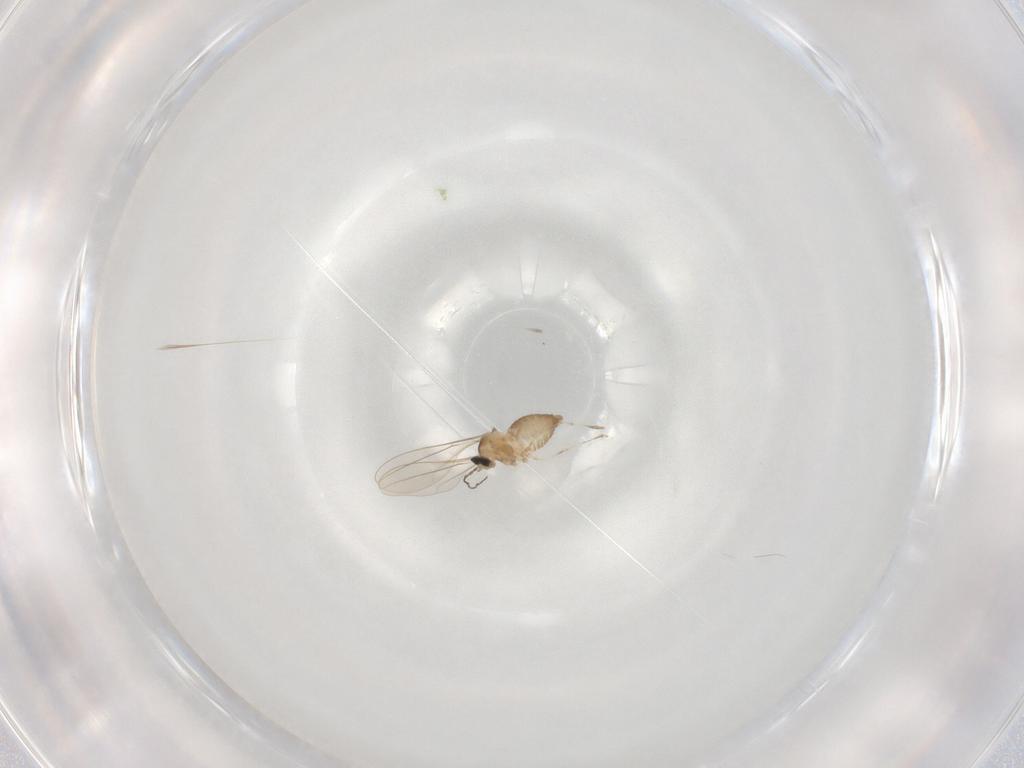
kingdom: Animalia
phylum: Arthropoda
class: Insecta
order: Diptera
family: Cecidomyiidae
